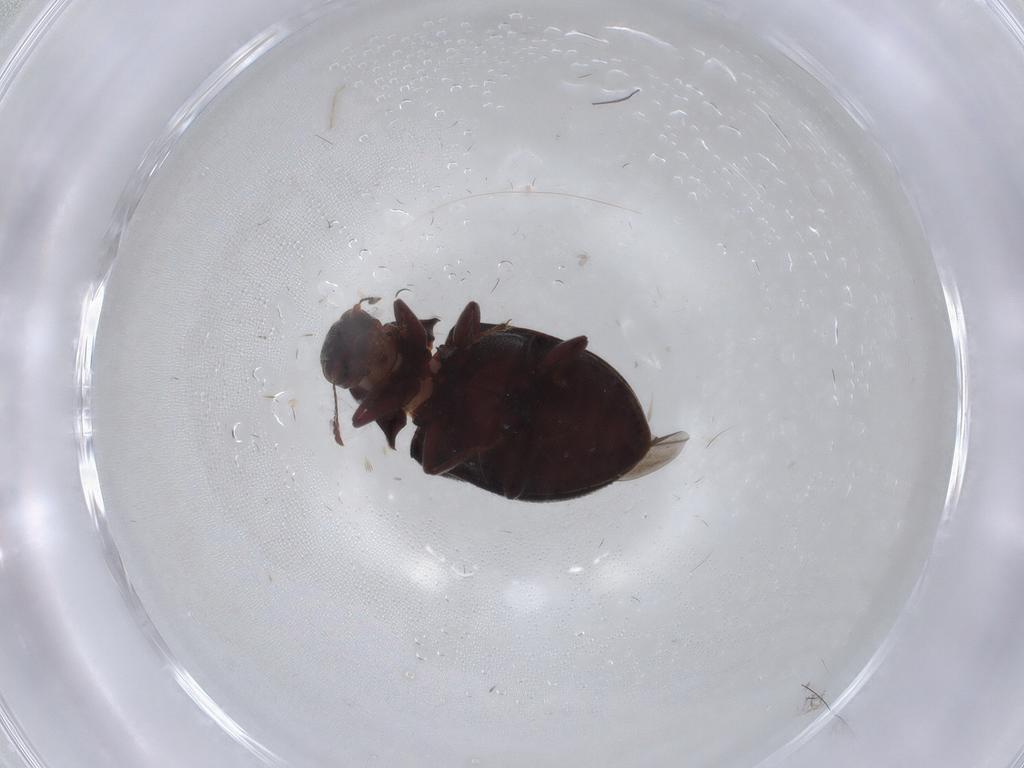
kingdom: Animalia
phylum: Arthropoda
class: Insecta
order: Coleoptera
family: Limnichidae
